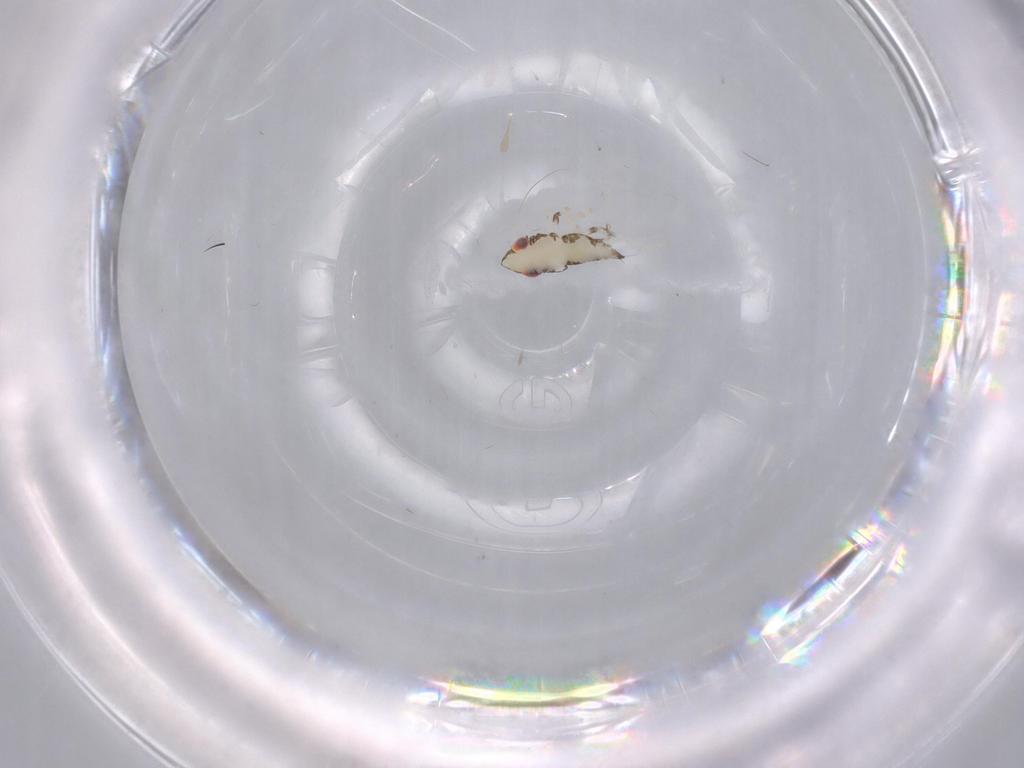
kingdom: Animalia
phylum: Arthropoda
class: Insecta
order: Hemiptera
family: Cicadellidae
